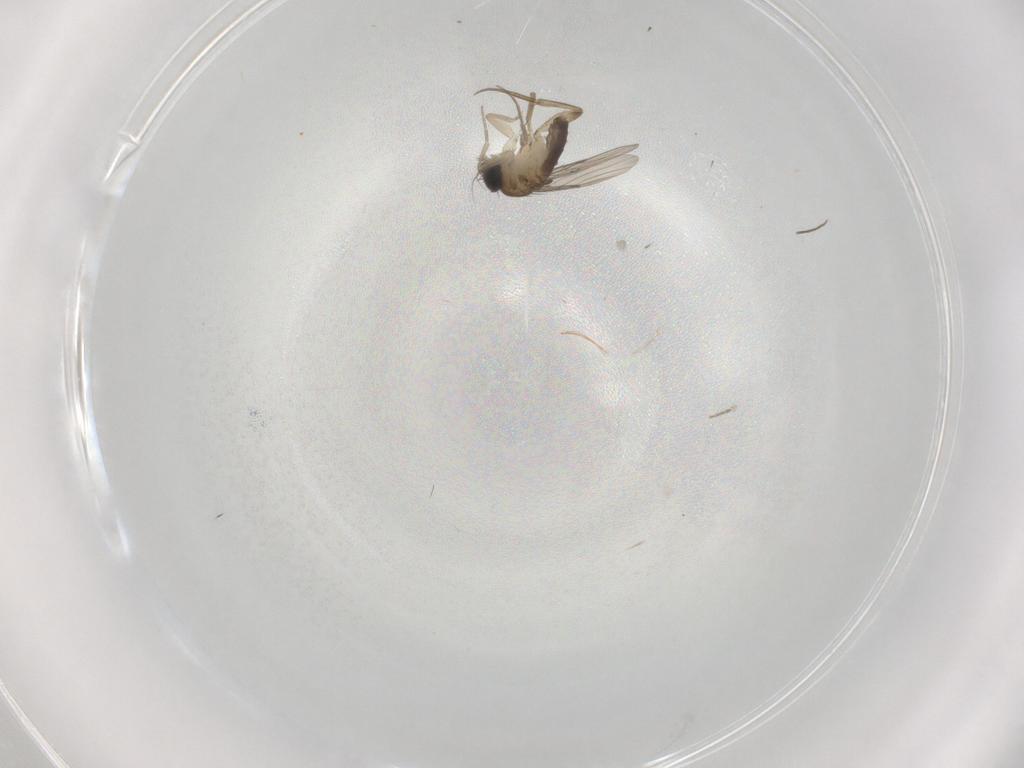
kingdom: Animalia
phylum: Arthropoda
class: Insecta
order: Diptera
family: Phoridae
